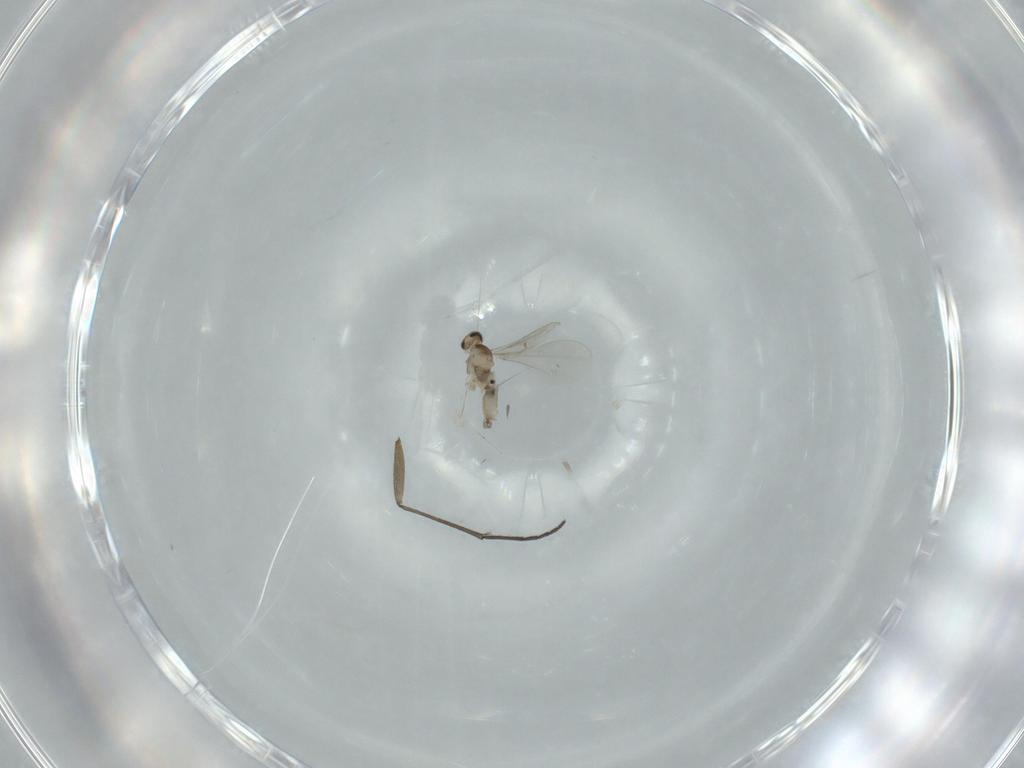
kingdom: Animalia
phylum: Arthropoda
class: Insecta
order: Diptera
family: Cecidomyiidae
